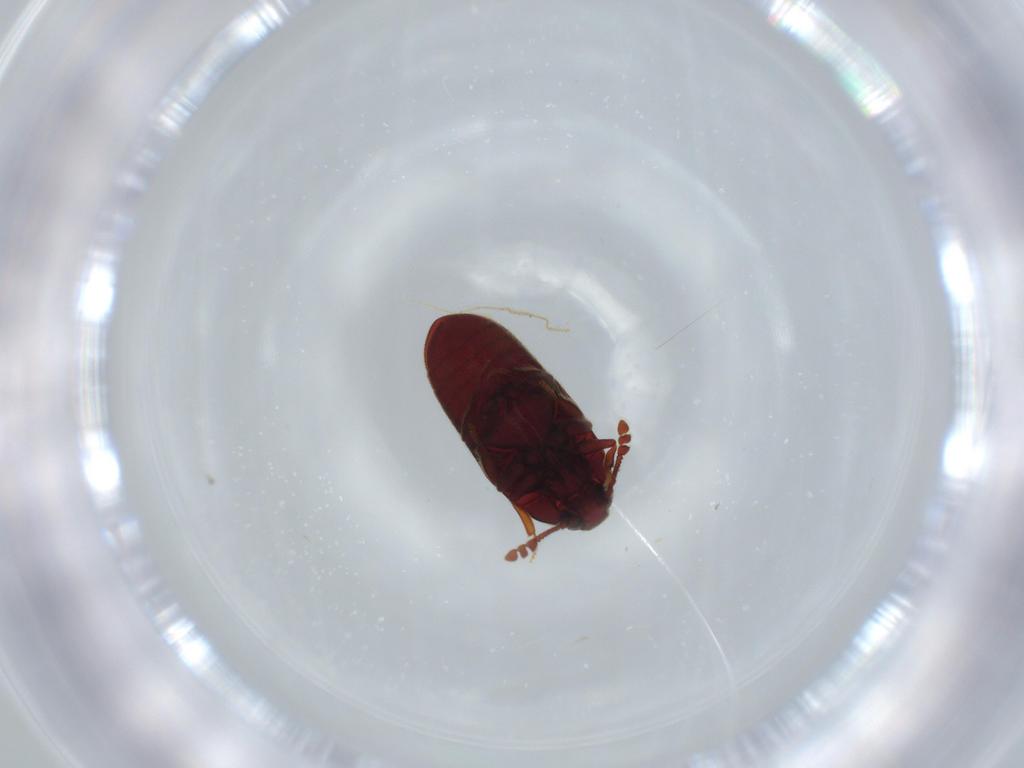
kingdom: Animalia
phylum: Arthropoda
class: Insecta
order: Coleoptera
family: Throscidae
